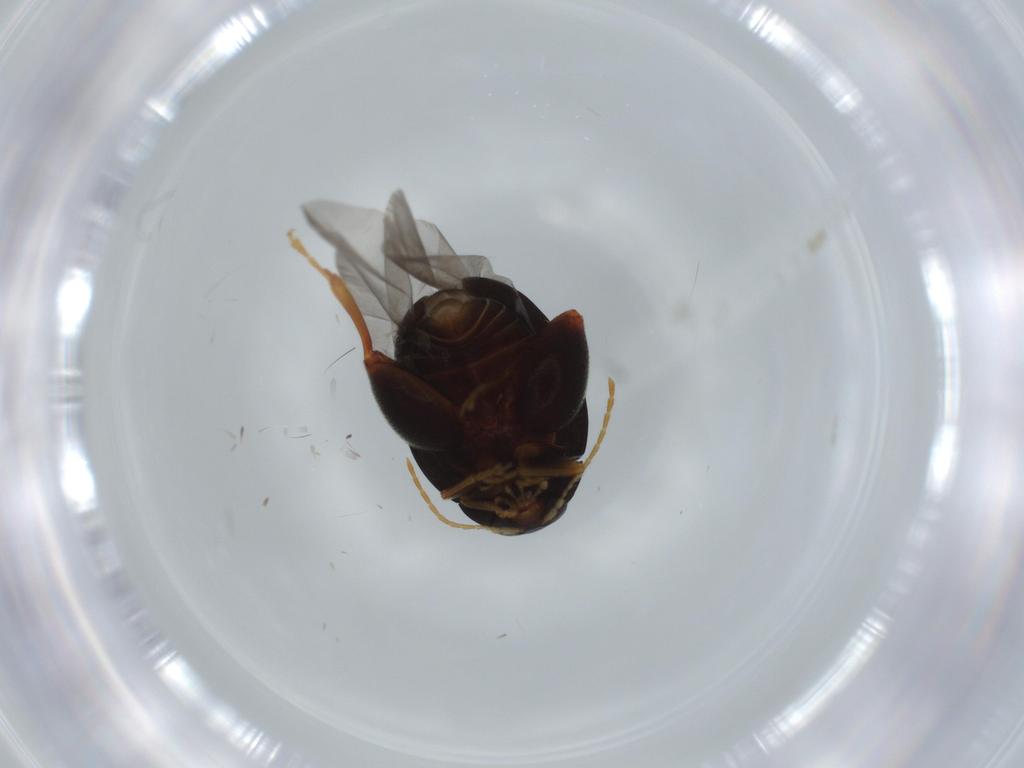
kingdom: Animalia
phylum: Arthropoda
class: Insecta
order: Coleoptera
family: Chrysomelidae
